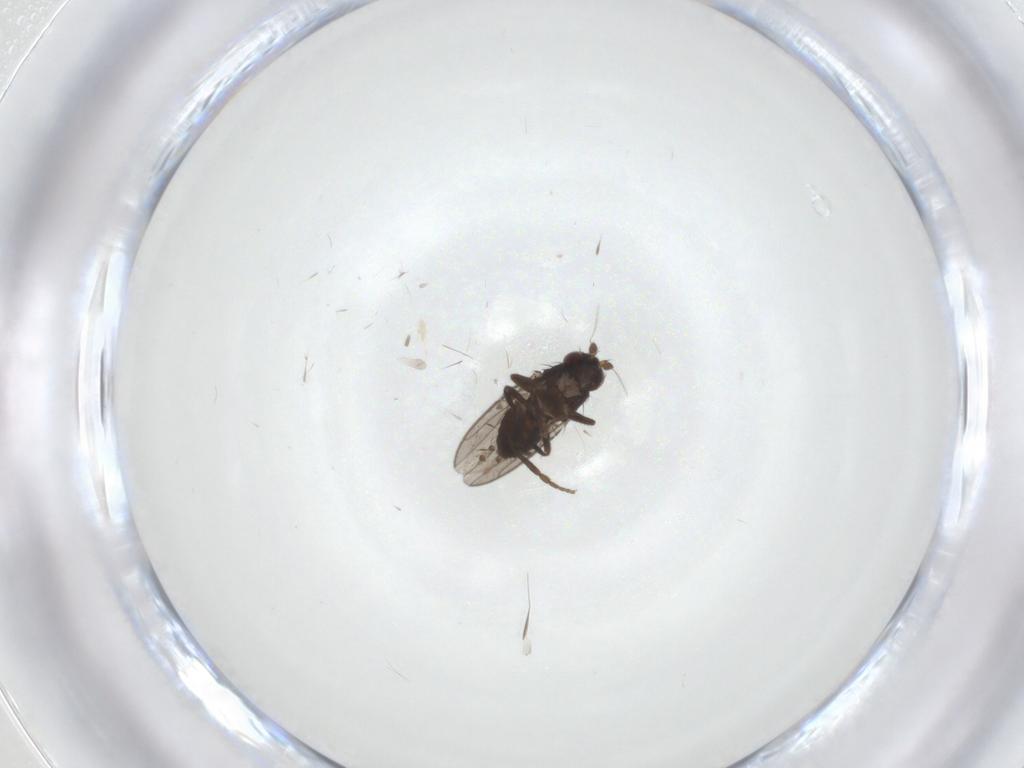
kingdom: Animalia
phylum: Arthropoda
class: Insecta
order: Diptera
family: Sphaeroceridae
